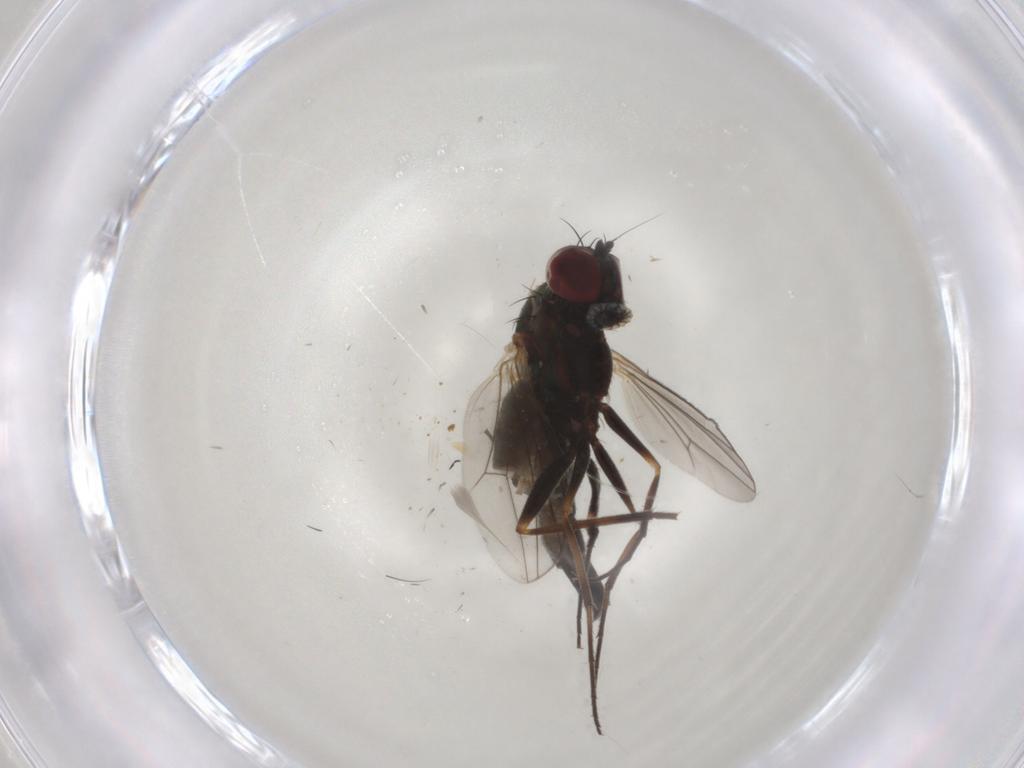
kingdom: Animalia
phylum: Arthropoda
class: Insecta
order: Diptera
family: Dolichopodidae
